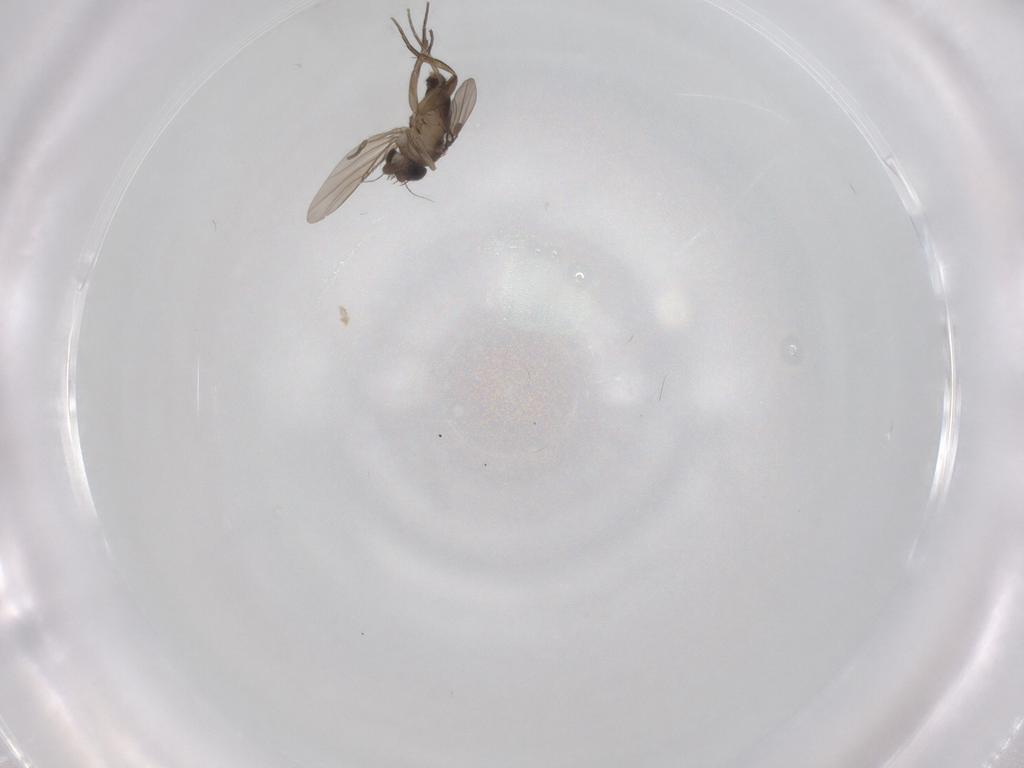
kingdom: Animalia
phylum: Arthropoda
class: Insecta
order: Diptera
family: Phoridae
